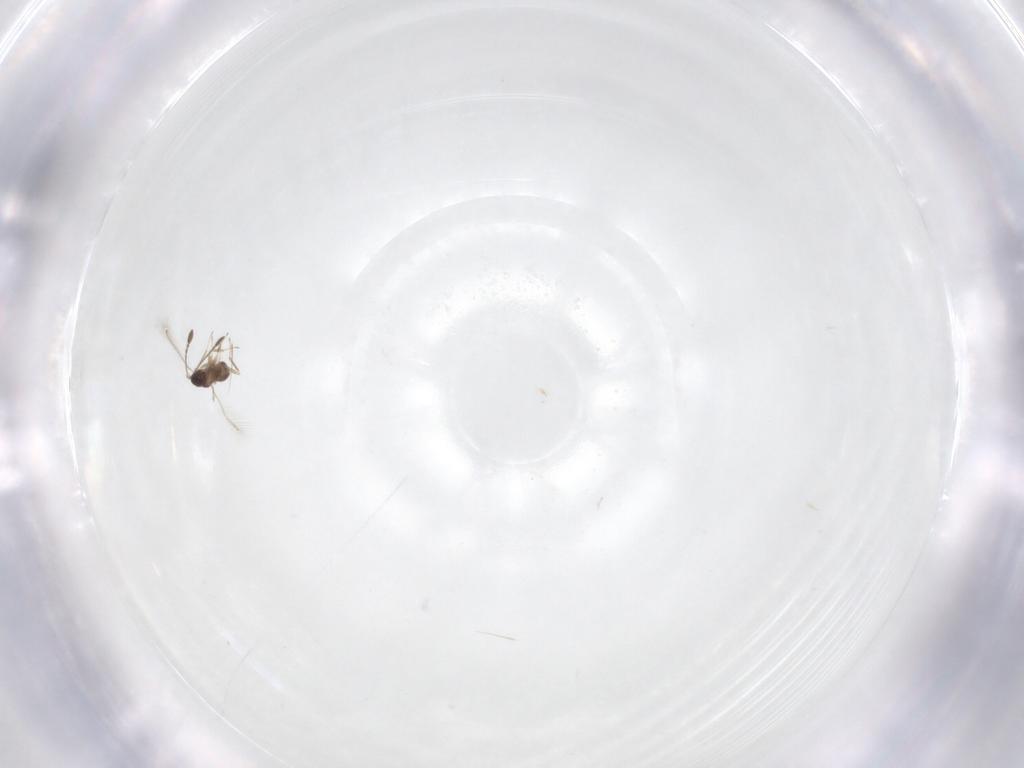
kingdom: Animalia
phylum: Arthropoda
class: Insecta
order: Hymenoptera
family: Mymaridae
